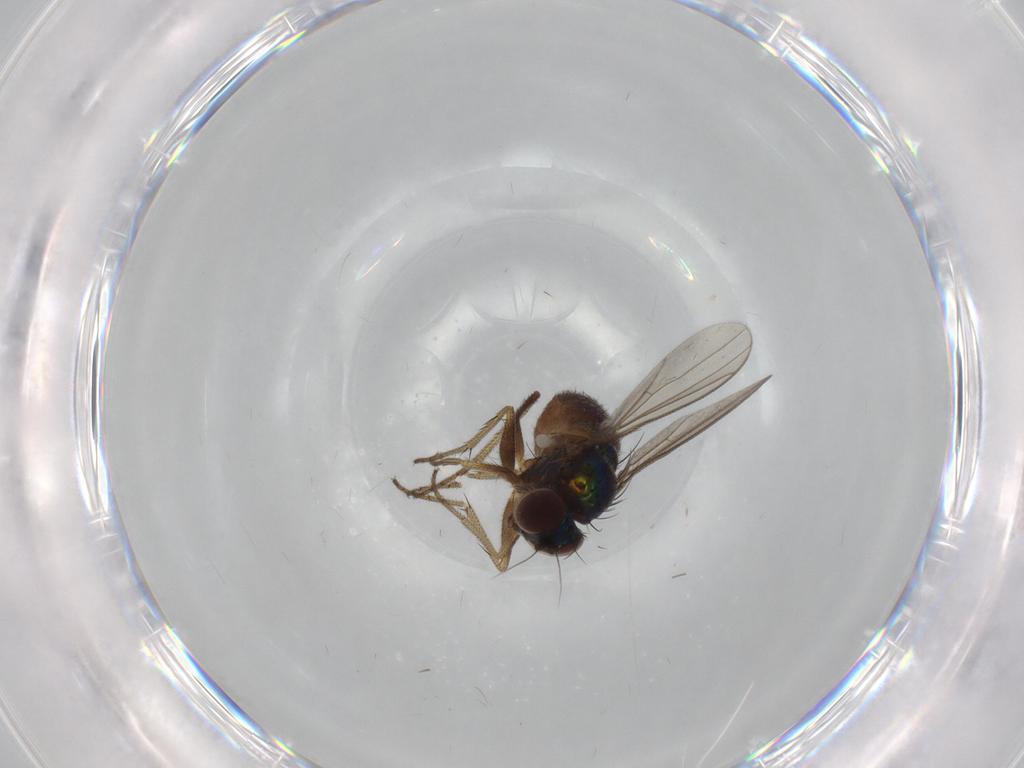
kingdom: Animalia
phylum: Arthropoda
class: Insecta
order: Diptera
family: Dolichopodidae
